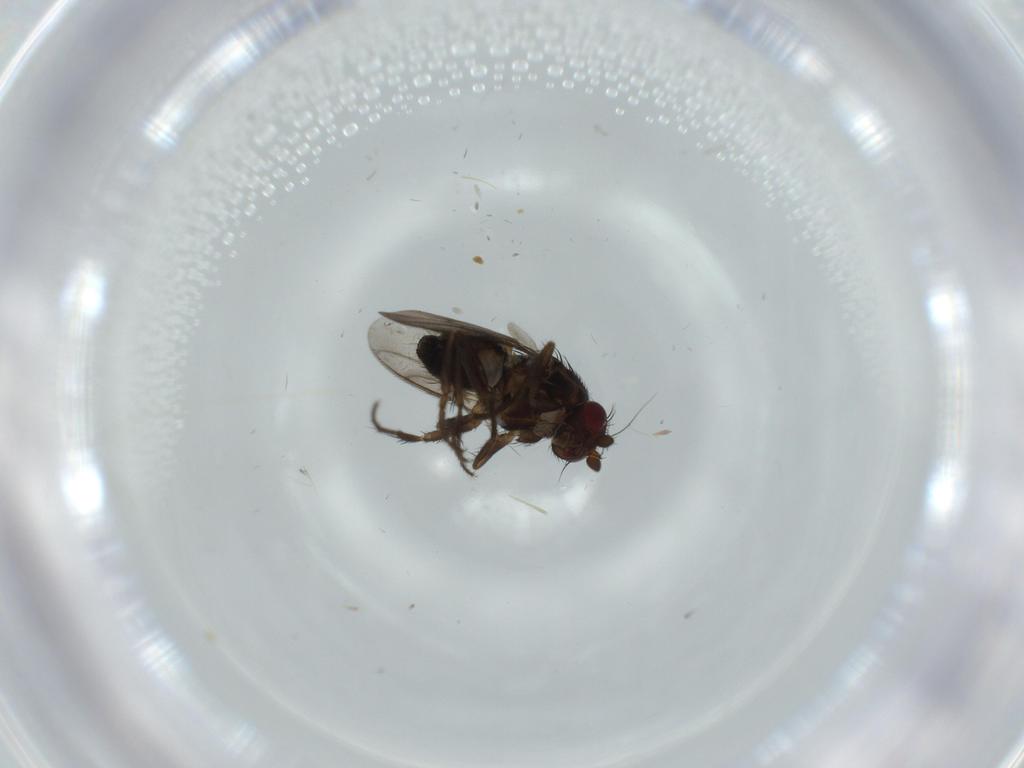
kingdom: Animalia
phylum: Arthropoda
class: Insecta
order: Diptera
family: Sphaeroceridae
